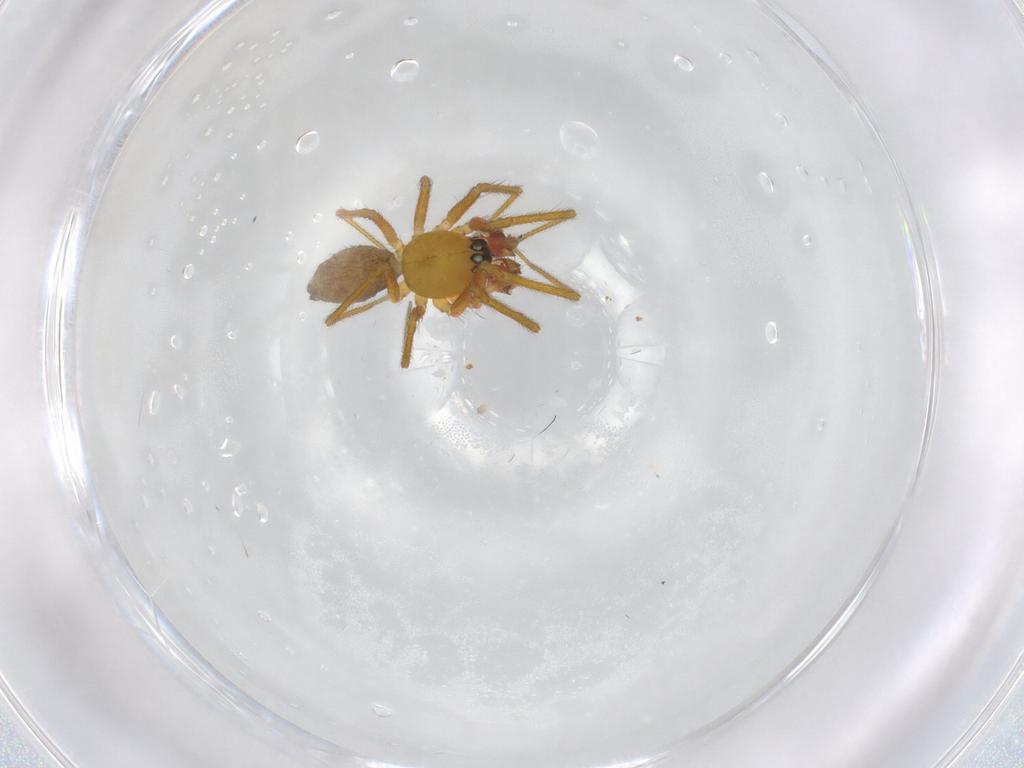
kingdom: Animalia
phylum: Arthropoda
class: Arachnida
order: Araneae
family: Linyphiidae
